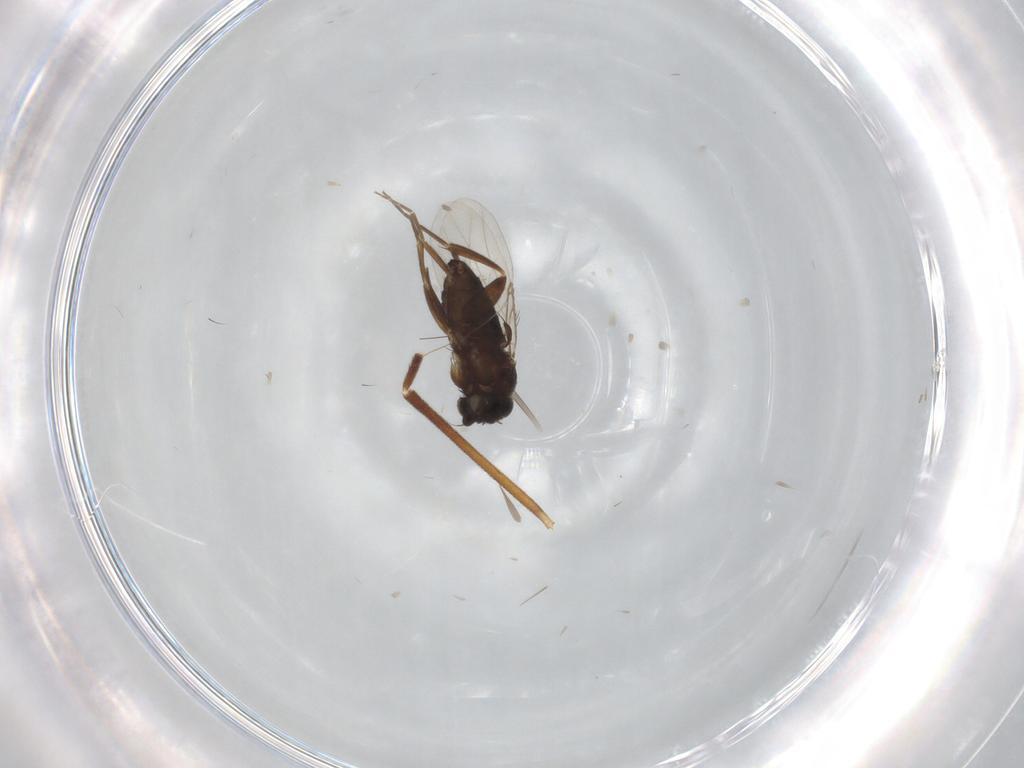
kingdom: Animalia
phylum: Arthropoda
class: Insecta
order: Diptera
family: Dolichopodidae
